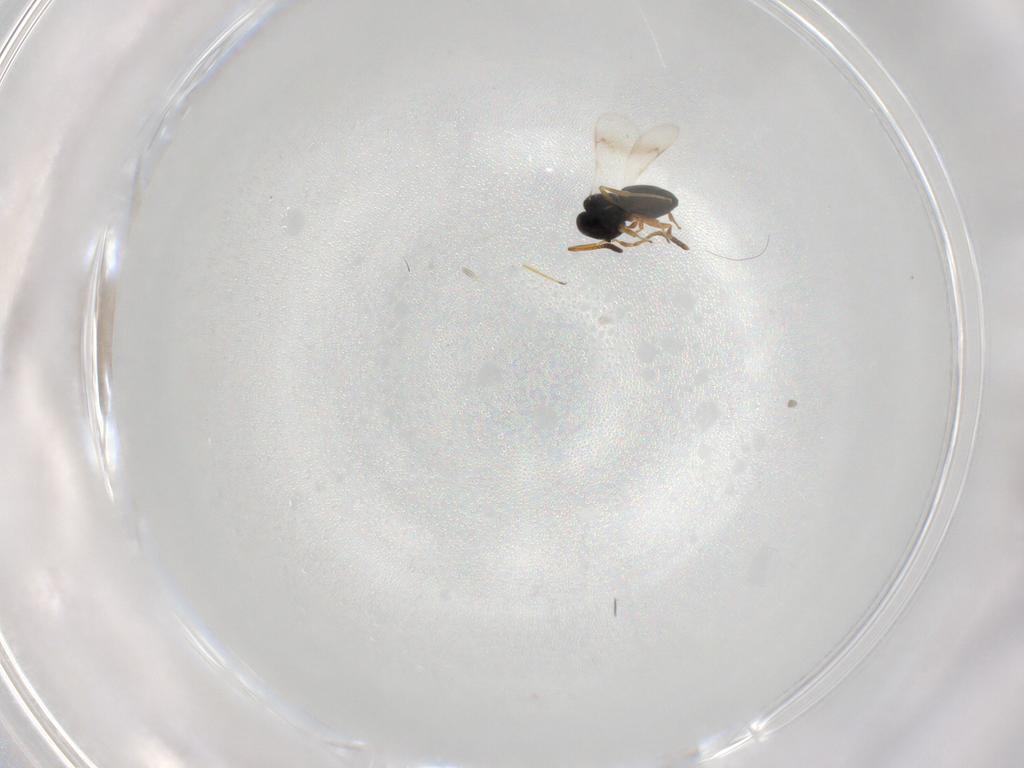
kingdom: Animalia
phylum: Arthropoda
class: Insecta
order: Hymenoptera
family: Scelionidae
